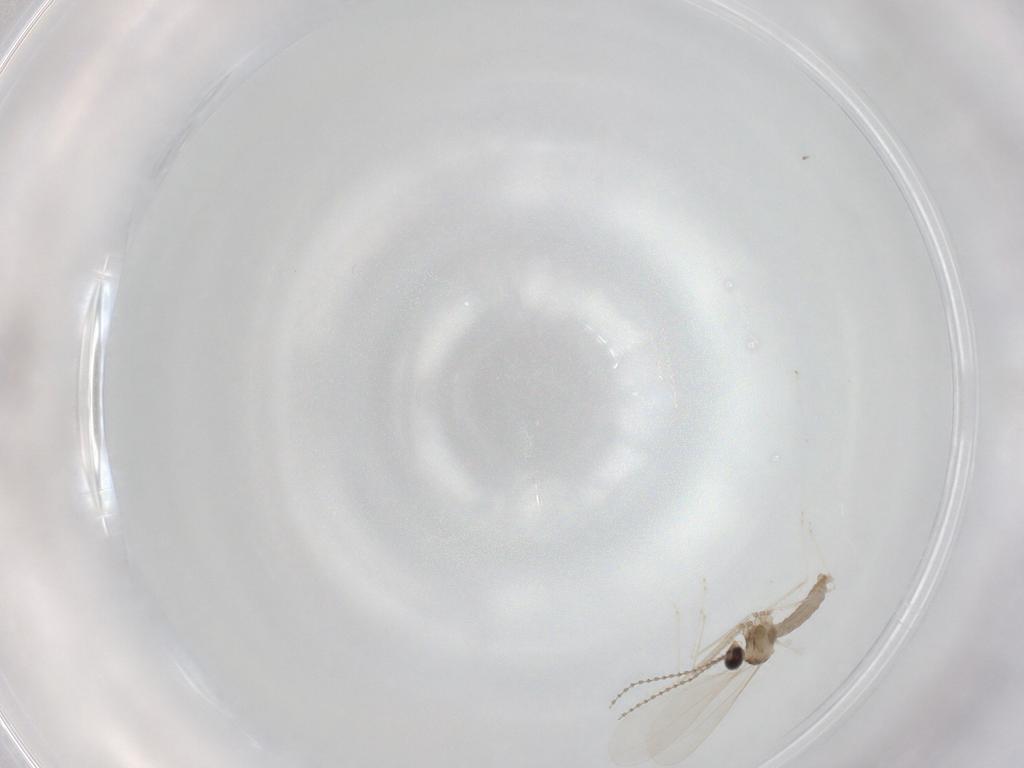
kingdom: Animalia
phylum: Arthropoda
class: Insecta
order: Diptera
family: Cecidomyiidae
